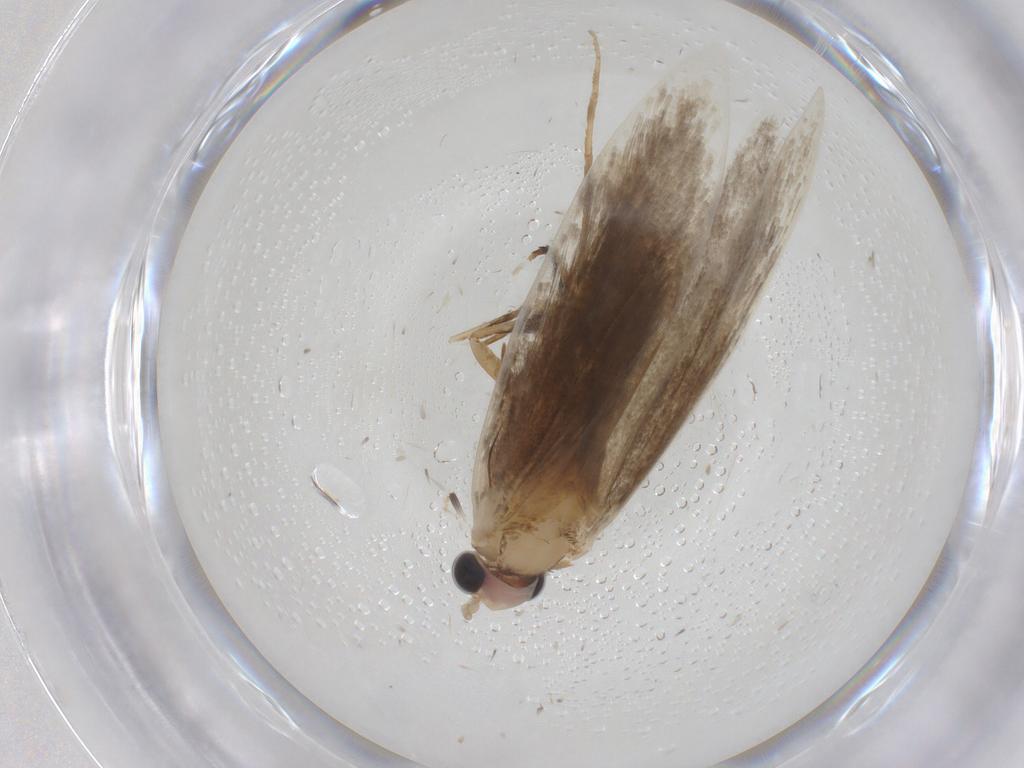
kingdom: Animalia
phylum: Arthropoda
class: Insecta
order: Lepidoptera
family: Tineidae
